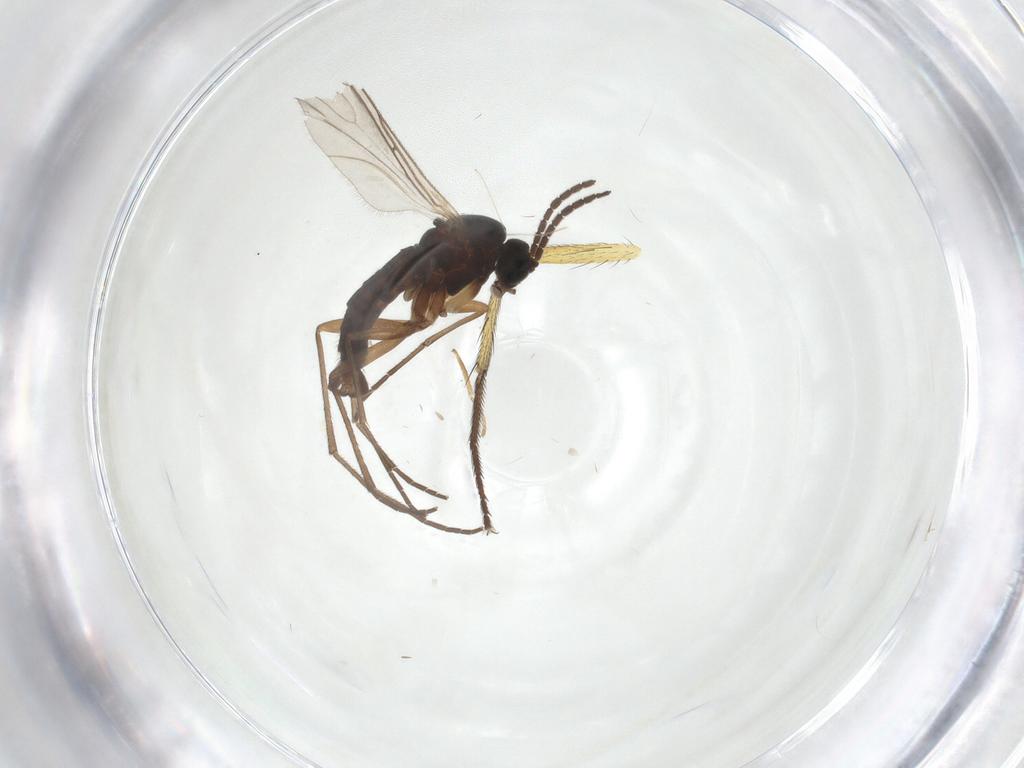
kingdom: Animalia
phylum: Arthropoda
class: Insecta
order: Diptera
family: Muscidae
